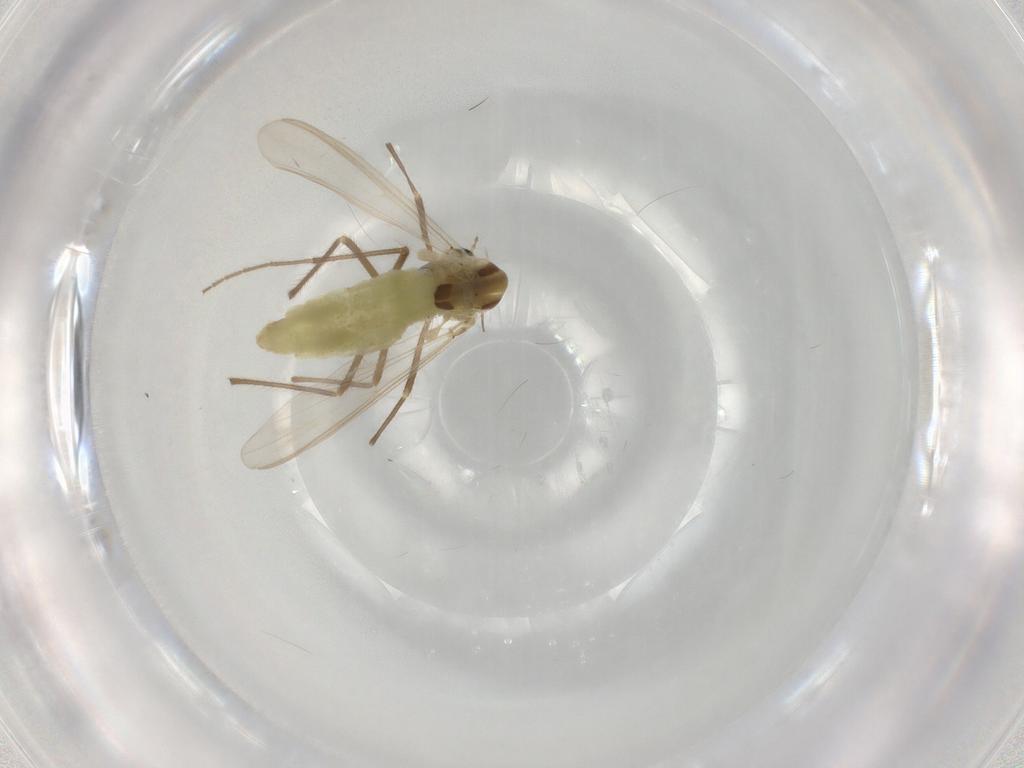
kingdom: Animalia
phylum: Arthropoda
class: Insecta
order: Diptera
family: Chironomidae
